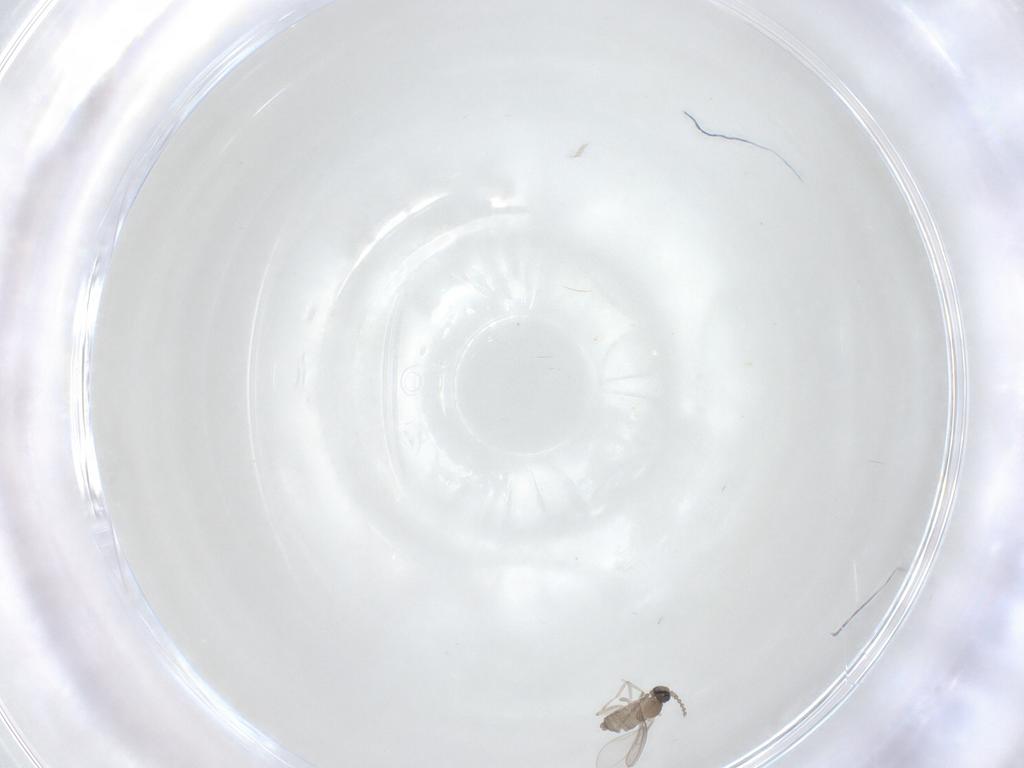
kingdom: Animalia
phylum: Arthropoda
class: Insecta
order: Diptera
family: Cecidomyiidae
